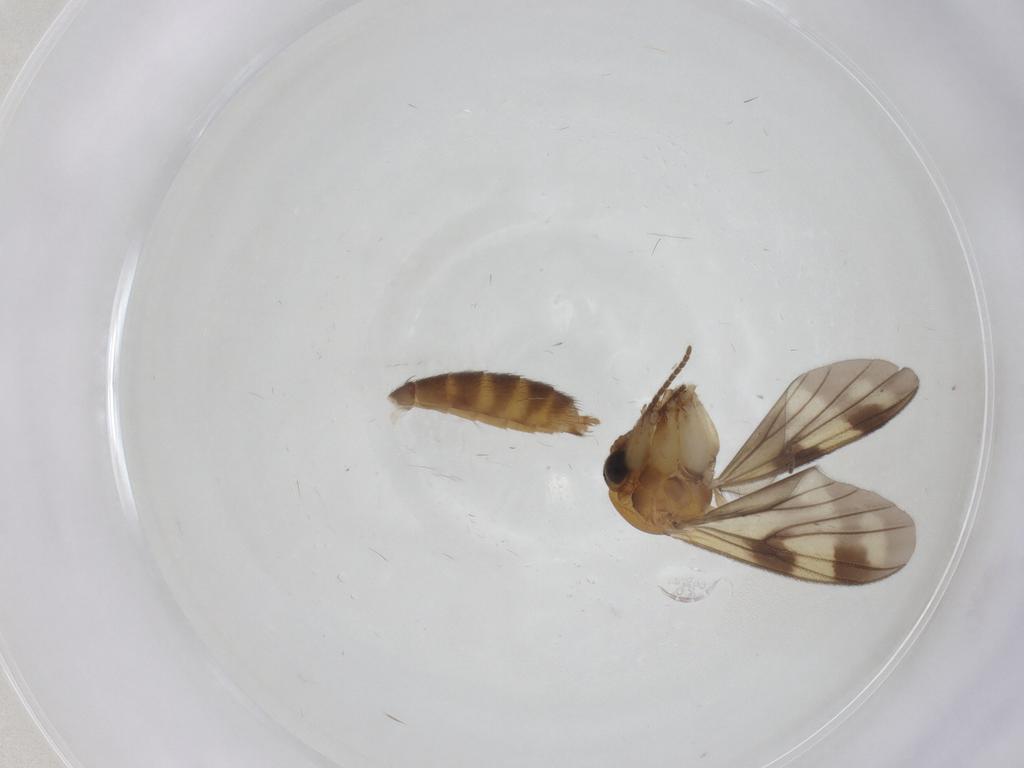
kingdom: Animalia
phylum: Arthropoda
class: Insecta
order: Diptera
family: Mycetophilidae
